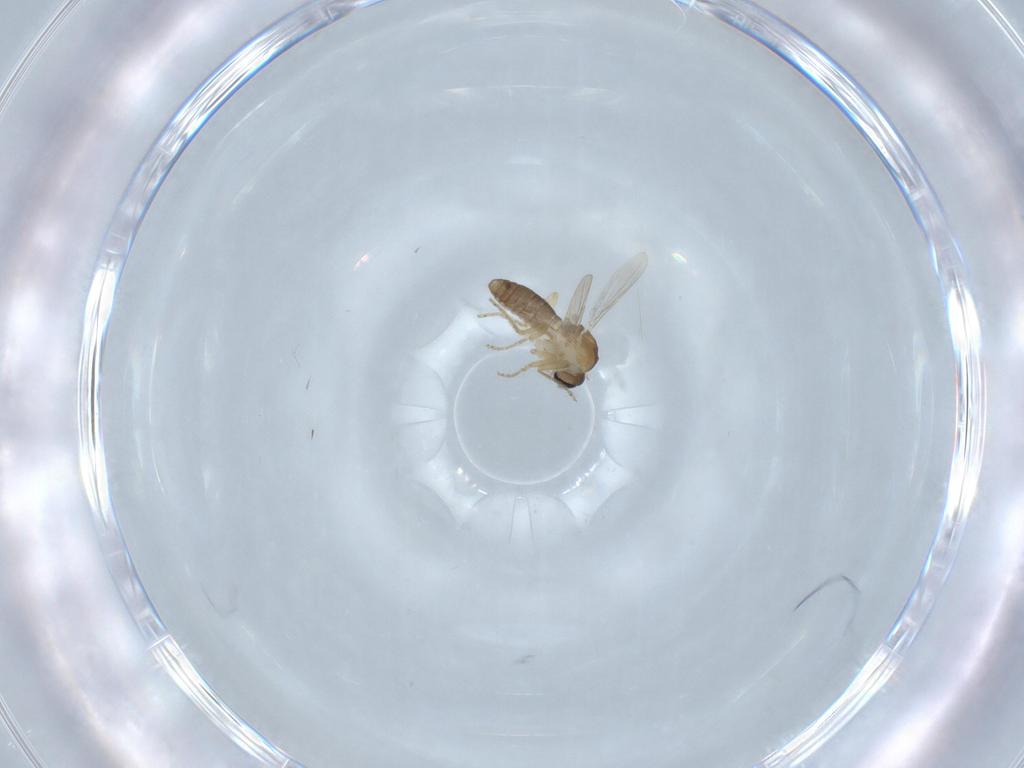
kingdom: Animalia
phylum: Arthropoda
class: Insecta
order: Diptera
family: Ceratopogonidae
